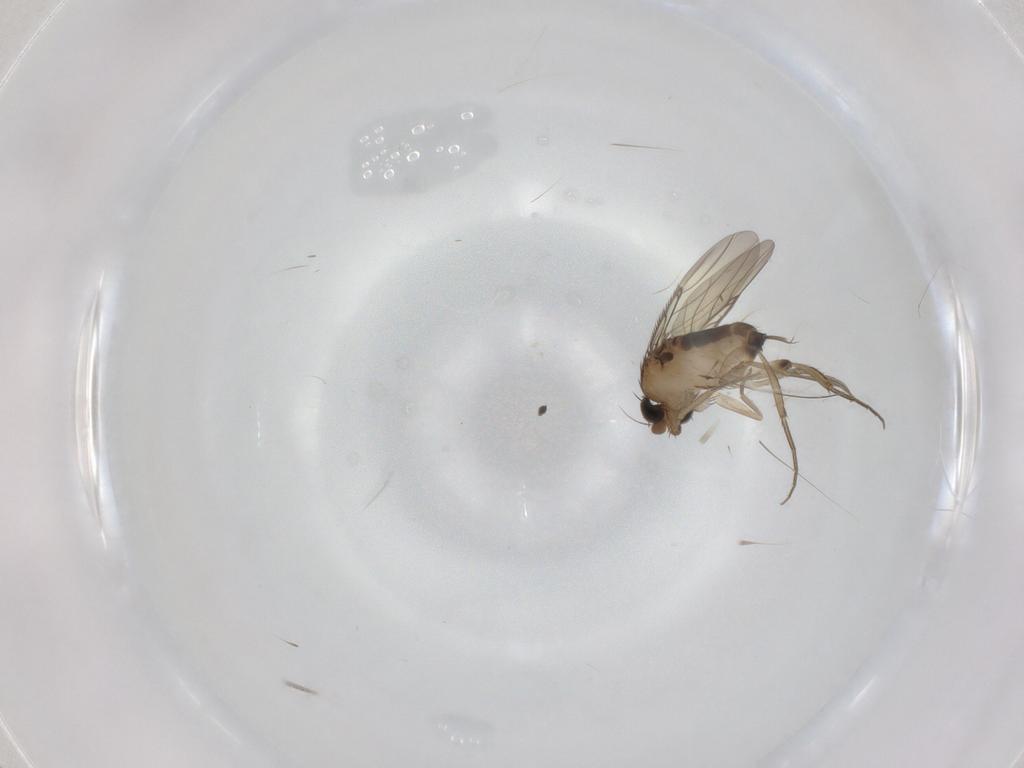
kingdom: Animalia
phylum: Arthropoda
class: Insecta
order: Diptera
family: Phoridae
